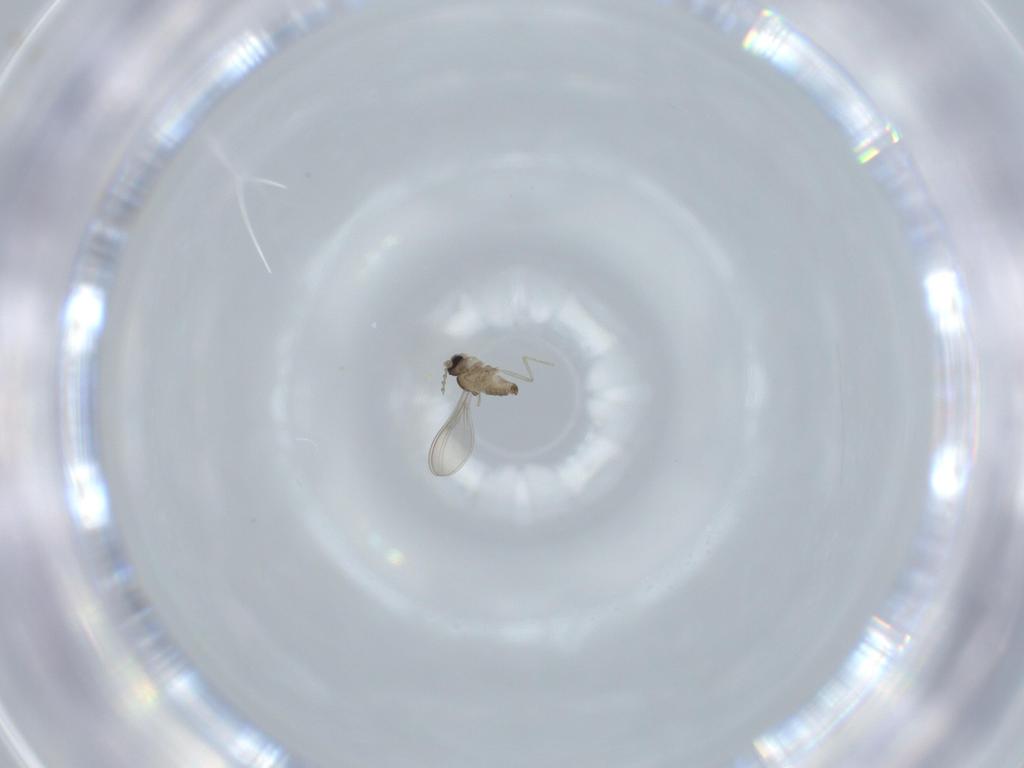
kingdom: Animalia
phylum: Arthropoda
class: Insecta
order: Diptera
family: Cecidomyiidae
